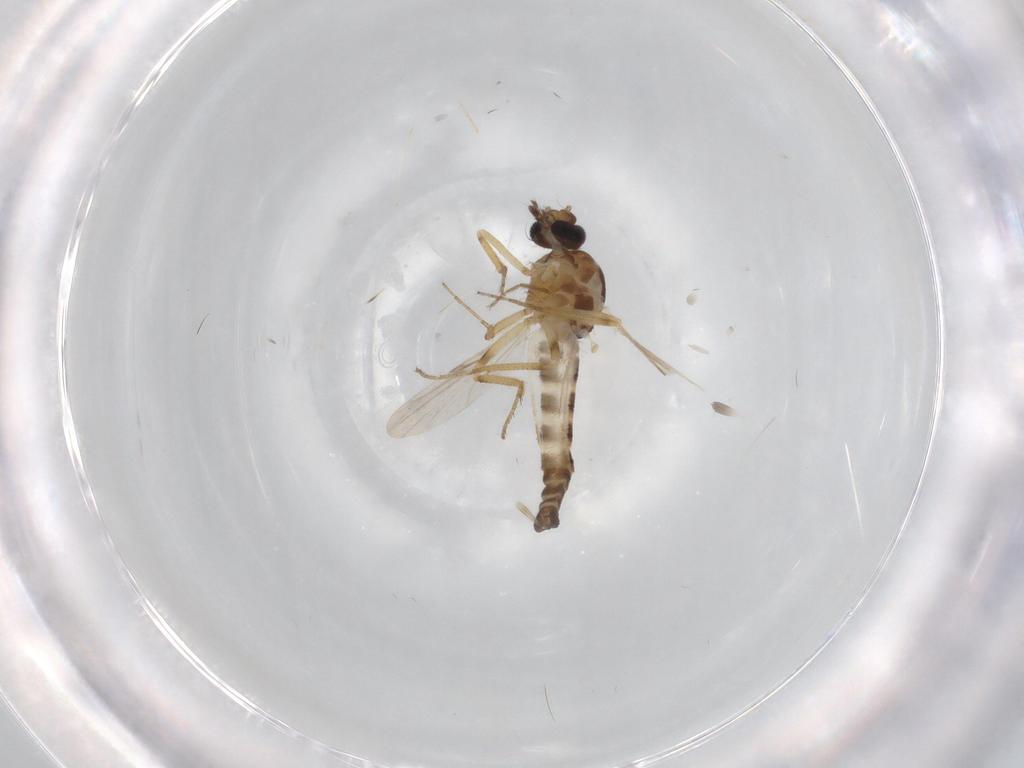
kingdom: Animalia
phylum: Arthropoda
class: Insecta
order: Diptera
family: Ceratopogonidae
